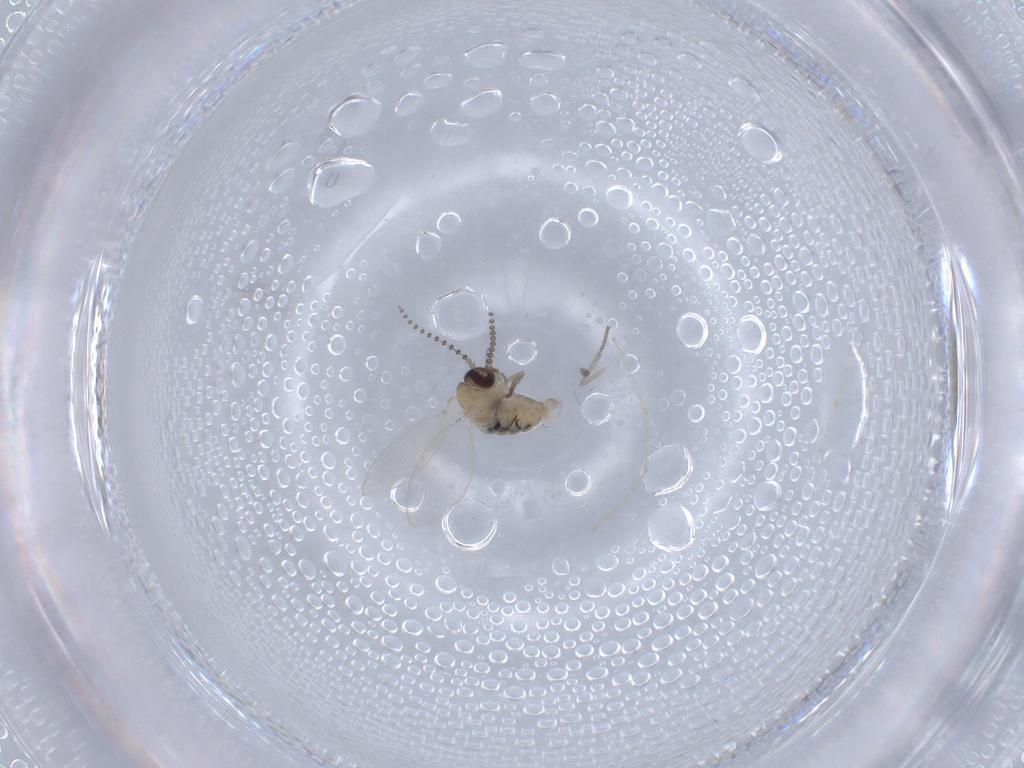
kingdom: Animalia
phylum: Arthropoda
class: Insecta
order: Diptera
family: Psychodidae
